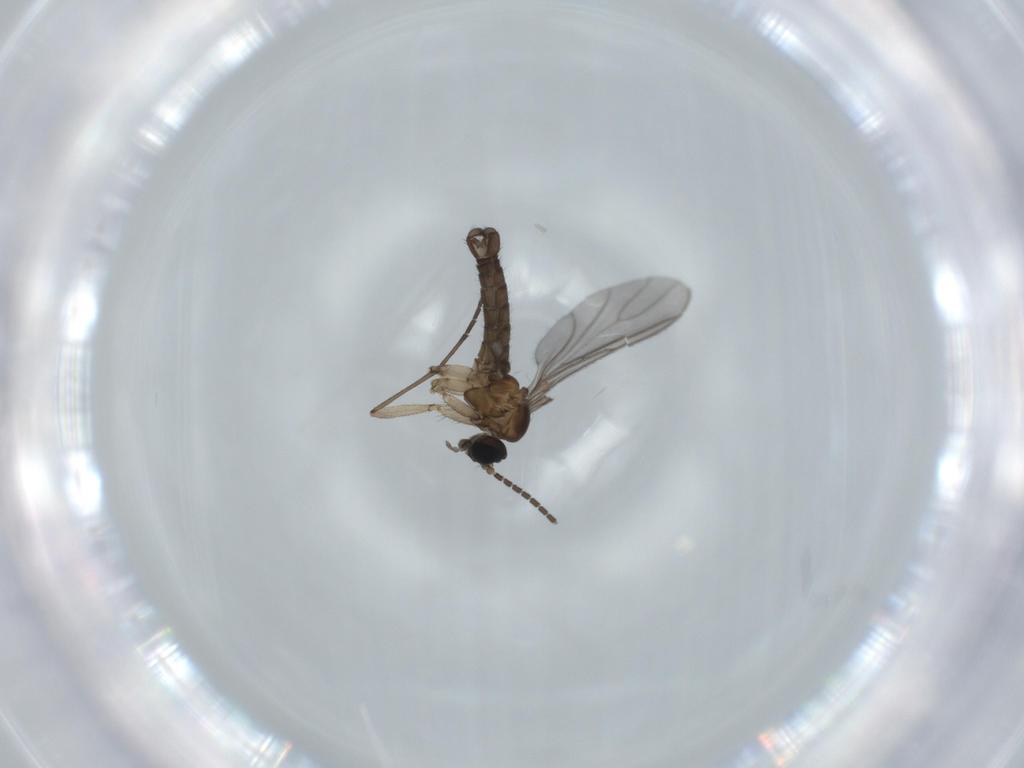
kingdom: Animalia
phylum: Arthropoda
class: Insecta
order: Diptera
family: Sciaridae
